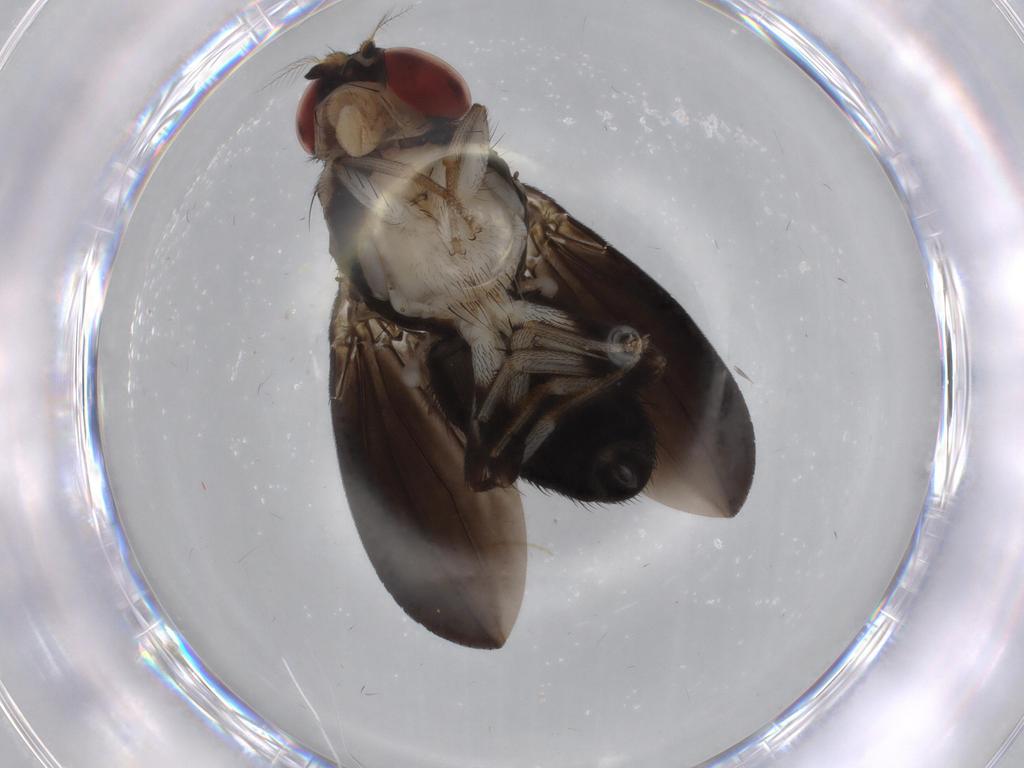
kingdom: Animalia
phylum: Arthropoda
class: Insecta
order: Diptera
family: Drosophilidae
